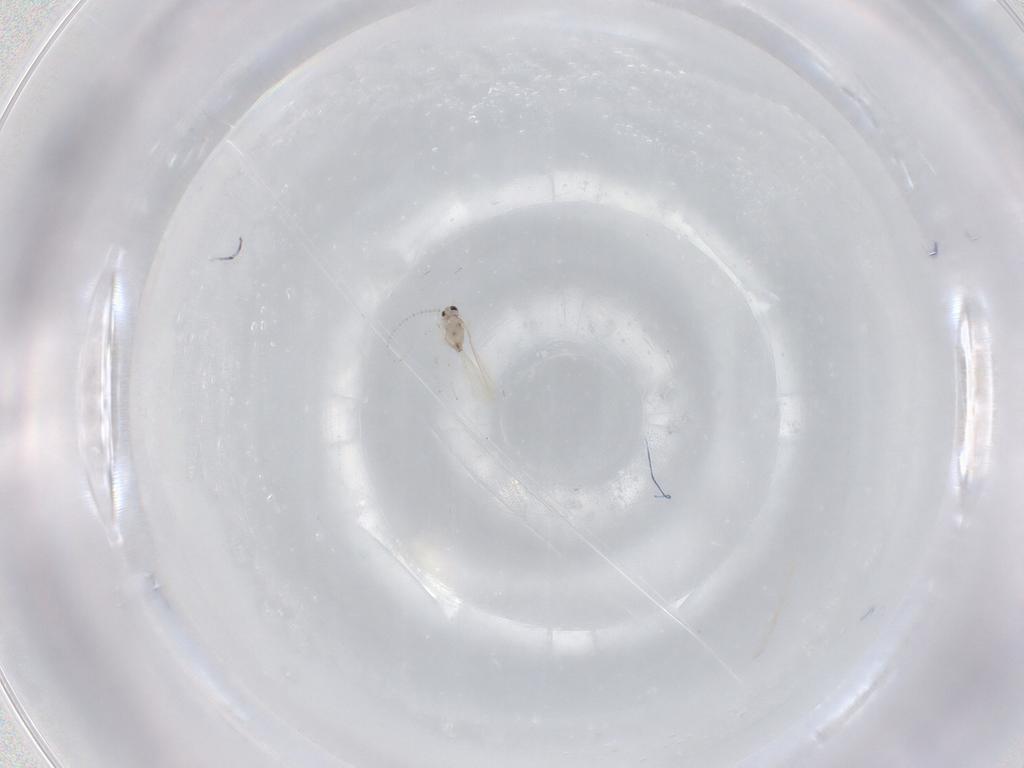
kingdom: Animalia
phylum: Arthropoda
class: Insecta
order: Diptera
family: Cecidomyiidae
